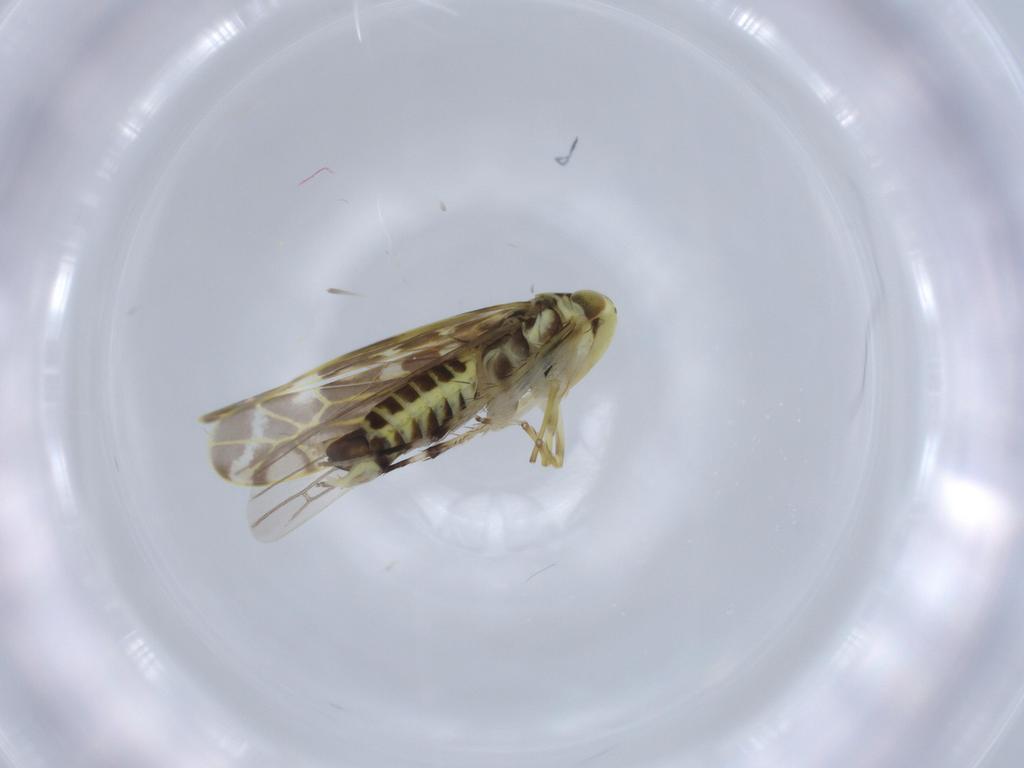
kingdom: Animalia
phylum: Arthropoda
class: Insecta
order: Hemiptera
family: Cicadellidae
